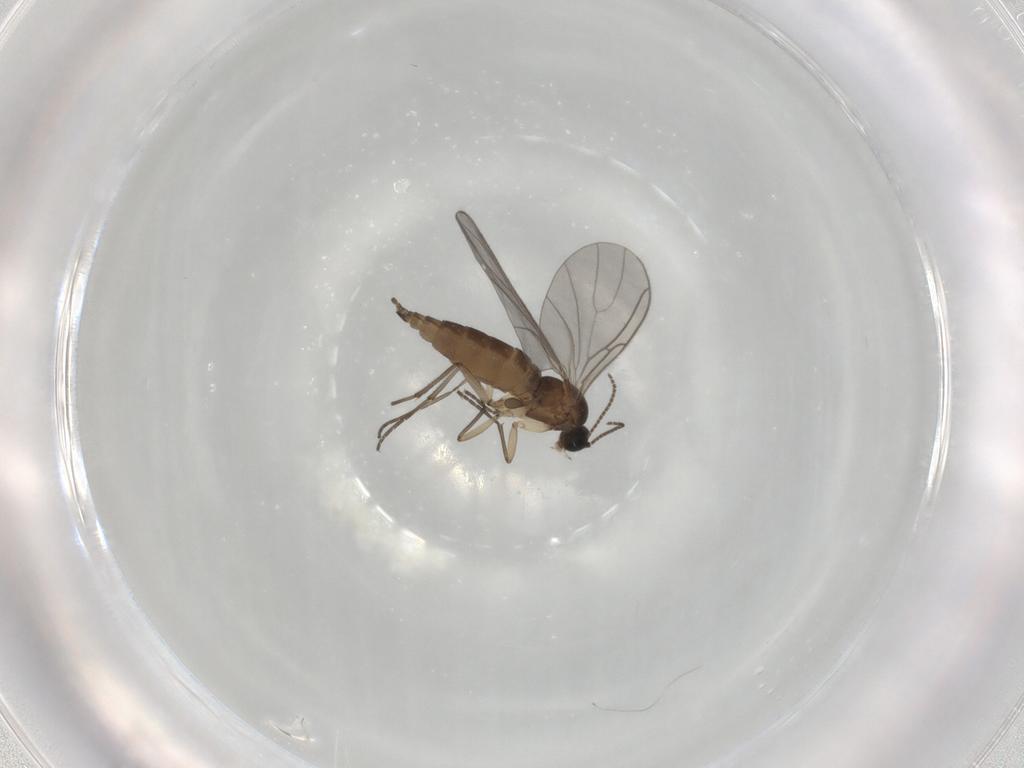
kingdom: Animalia
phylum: Arthropoda
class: Insecta
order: Diptera
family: Sciaridae
